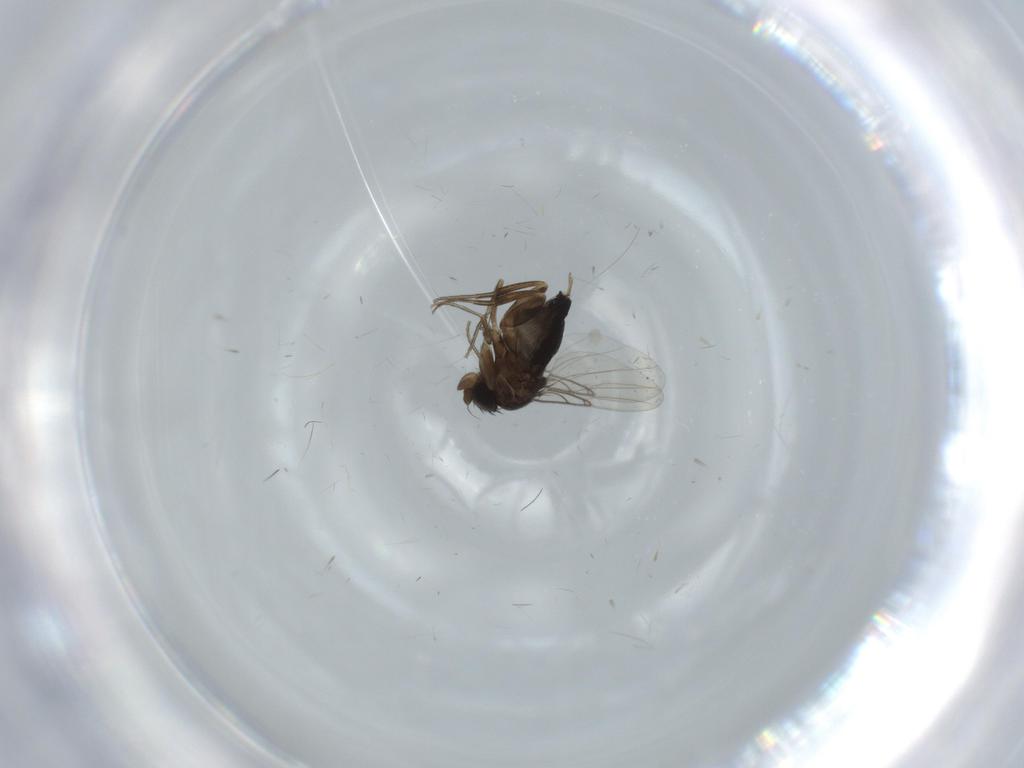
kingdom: Animalia
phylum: Arthropoda
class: Insecta
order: Diptera
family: Phoridae
